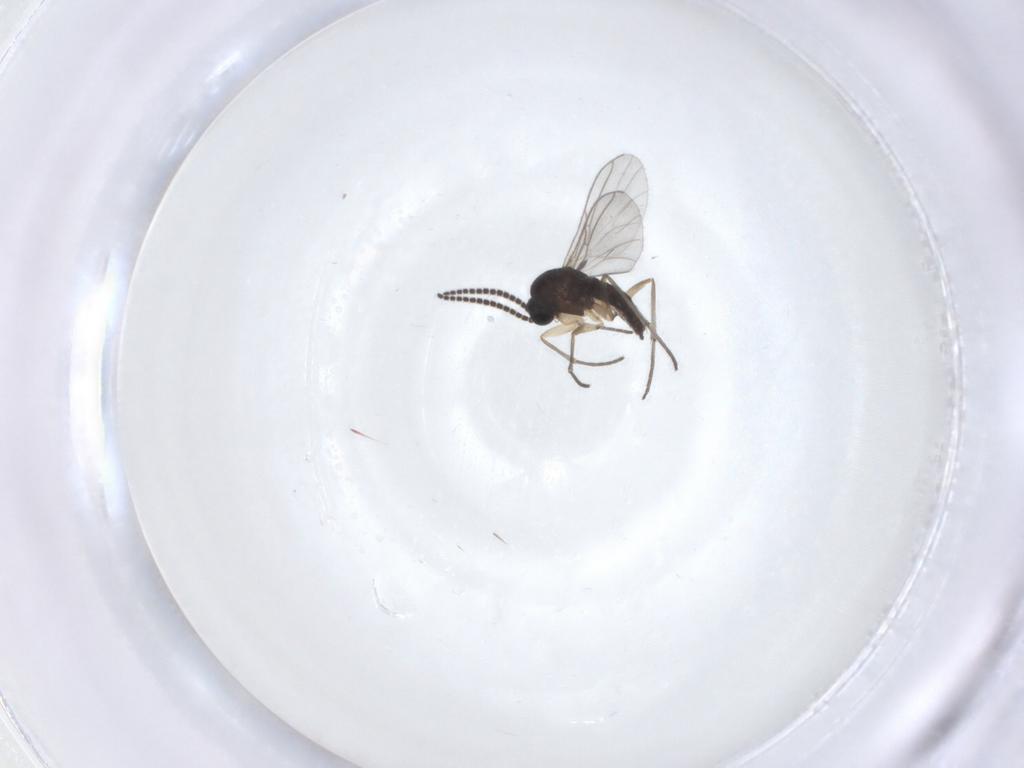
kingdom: Animalia
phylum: Arthropoda
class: Insecta
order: Diptera
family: Sciaridae
